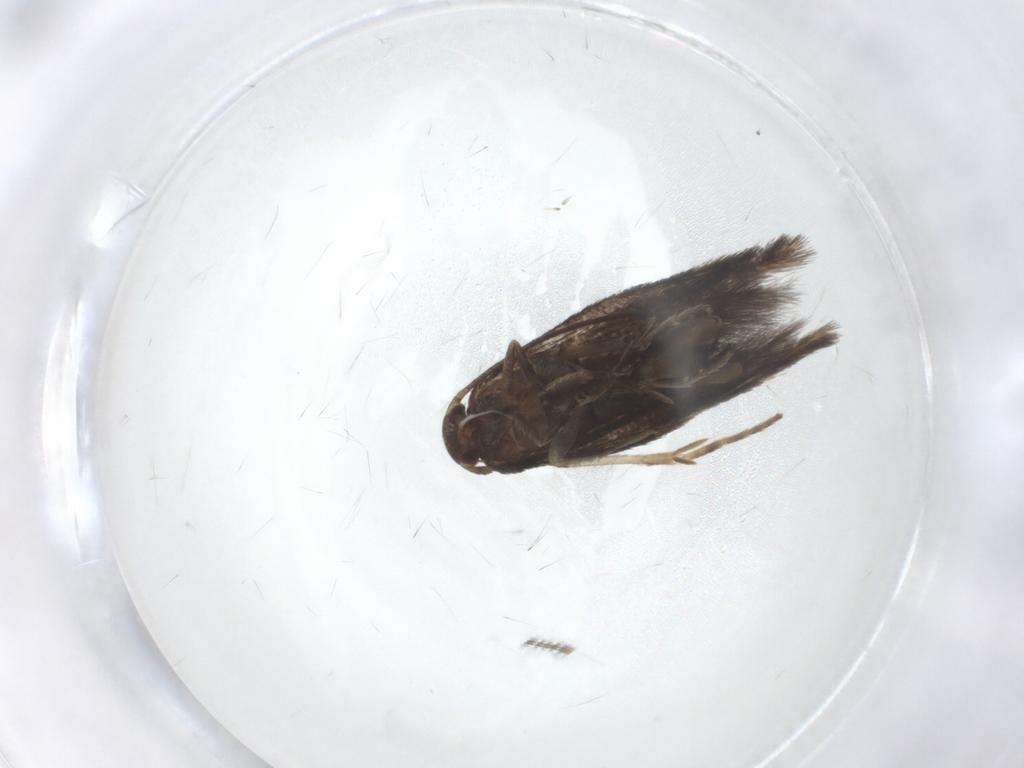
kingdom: Animalia
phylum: Arthropoda
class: Insecta
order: Lepidoptera
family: Elachistidae
